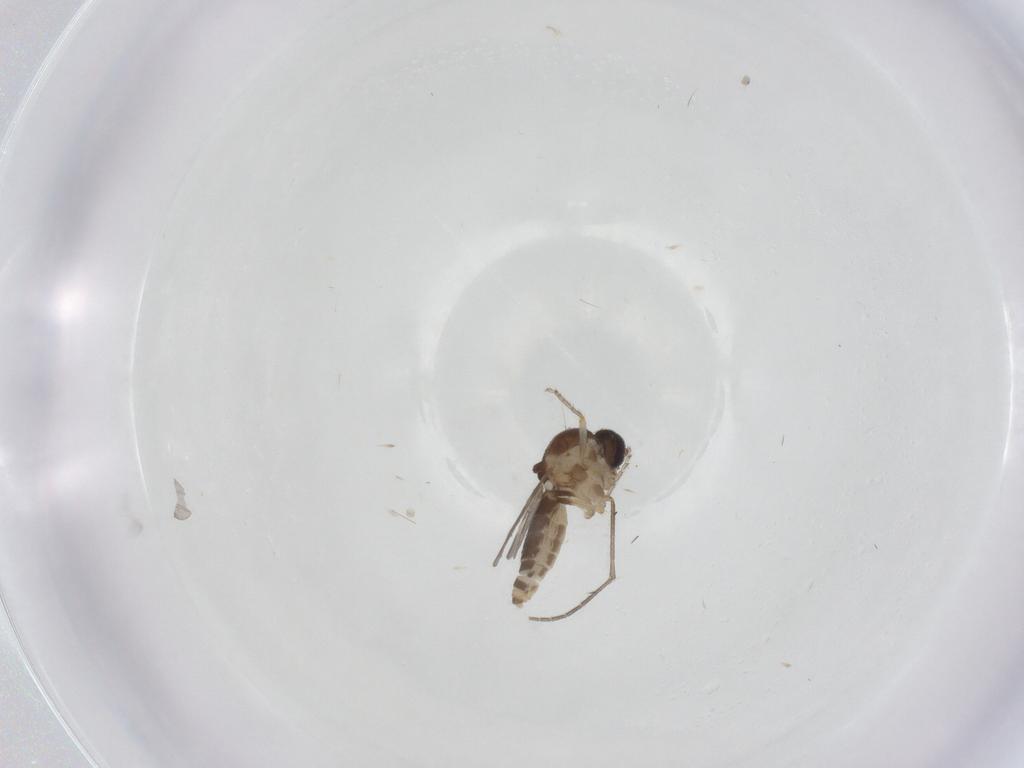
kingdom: Animalia
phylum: Arthropoda
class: Insecta
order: Diptera
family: Ceratopogonidae
